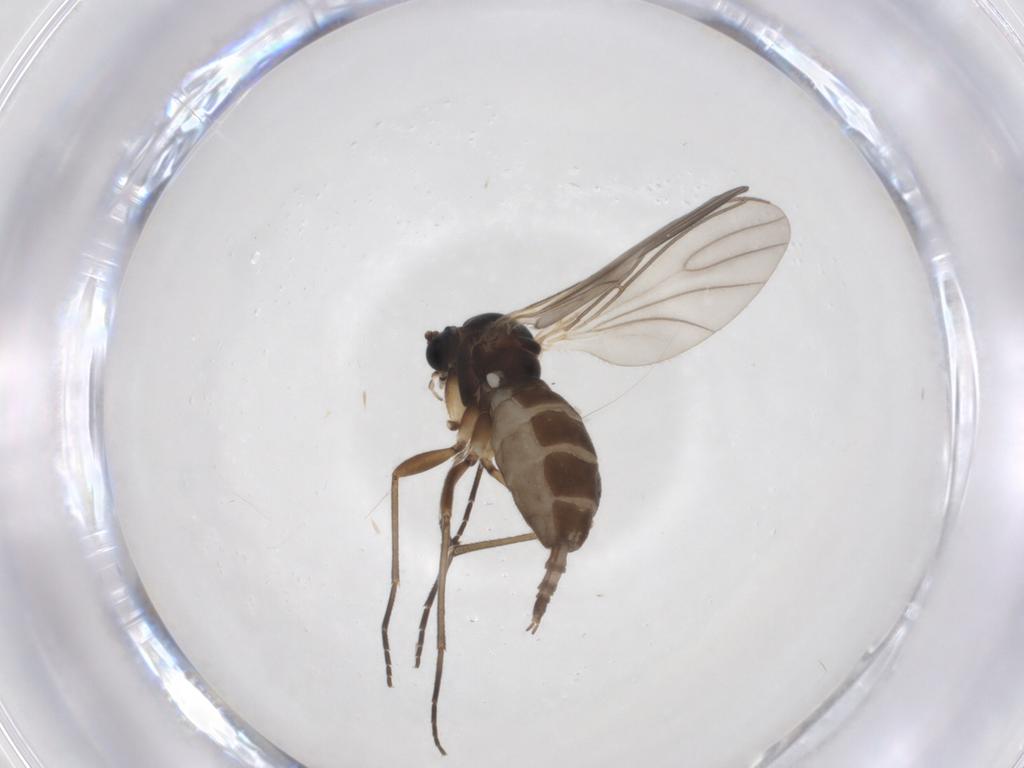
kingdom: Animalia
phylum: Arthropoda
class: Insecta
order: Diptera
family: Sciaridae
